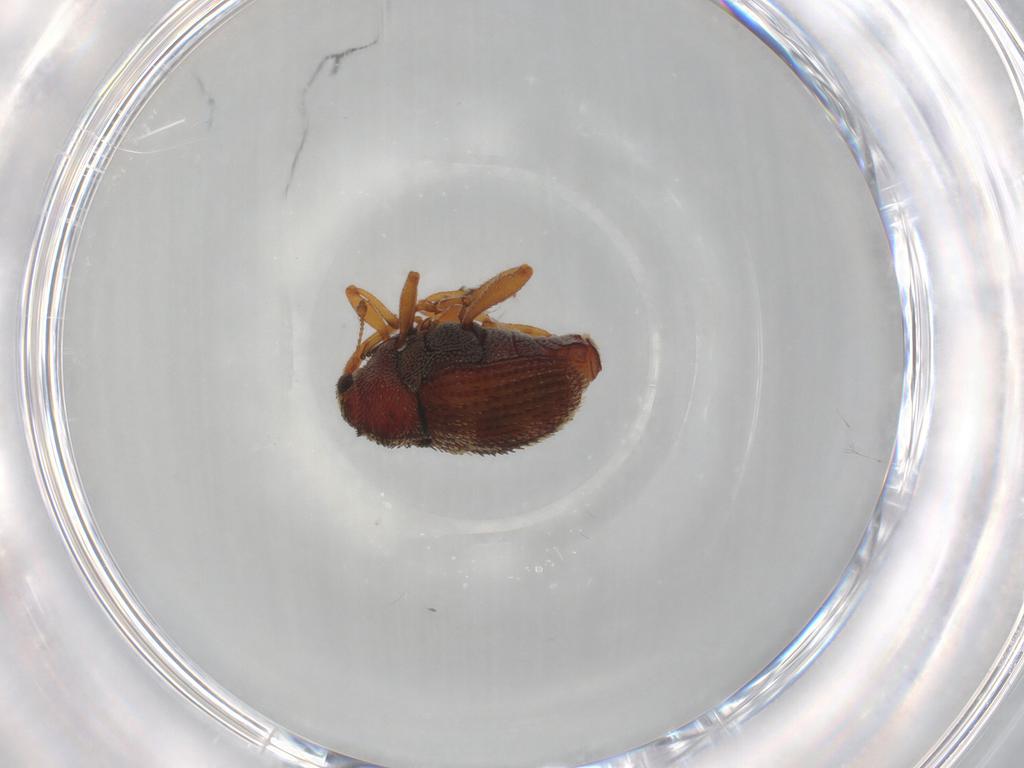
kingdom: Animalia
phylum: Arthropoda
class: Insecta
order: Coleoptera
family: Curculionidae
